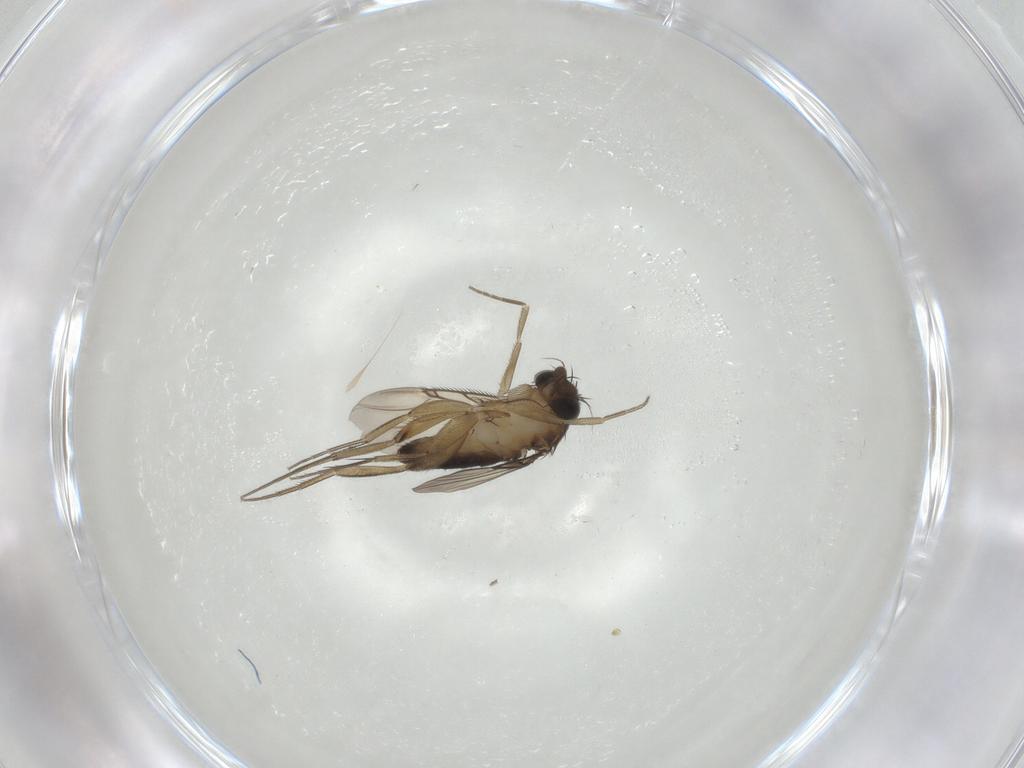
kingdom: Animalia
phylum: Arthropoda
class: Insecta
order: Diptera
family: Phoridae
